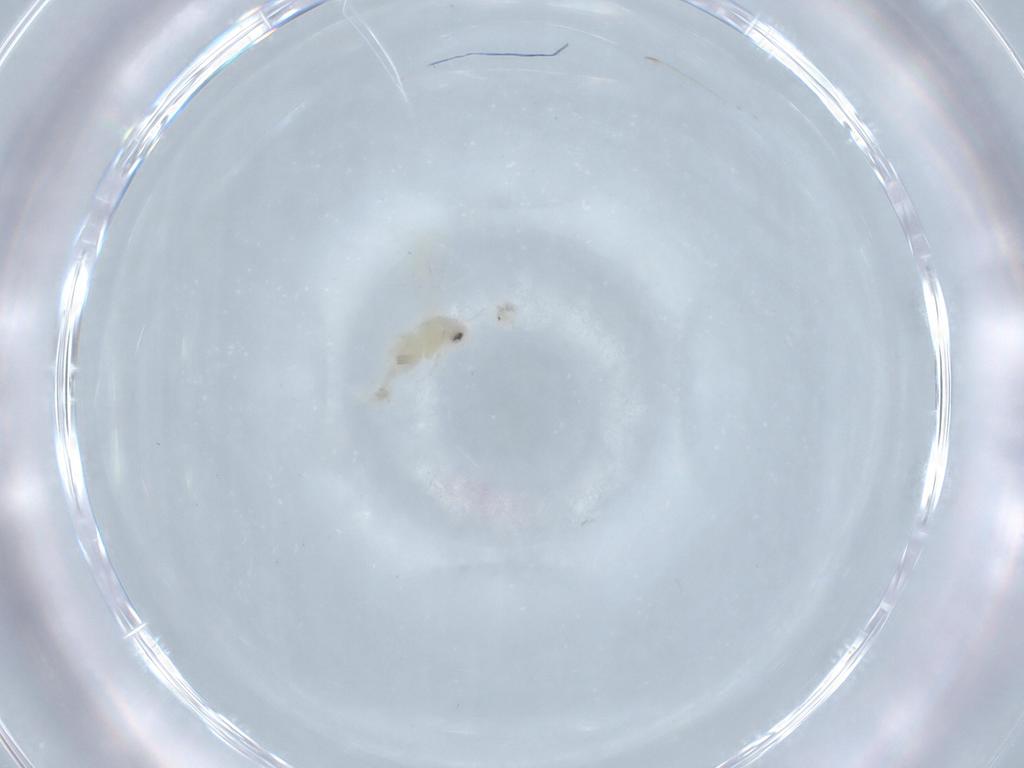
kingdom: Animalia
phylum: Arthropoda
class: Insecta
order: Hemiptera
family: Aleyrodidae
